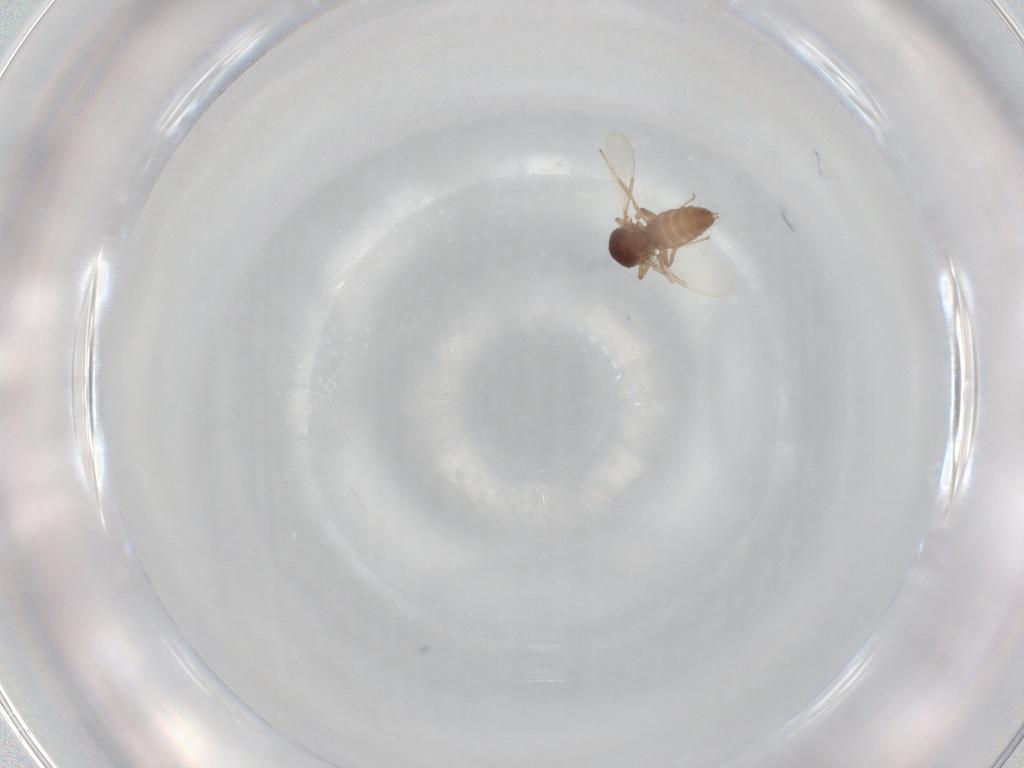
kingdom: Animalia
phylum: Arthropoda
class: Insecta
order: Diptera
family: Ceratopogonidae
